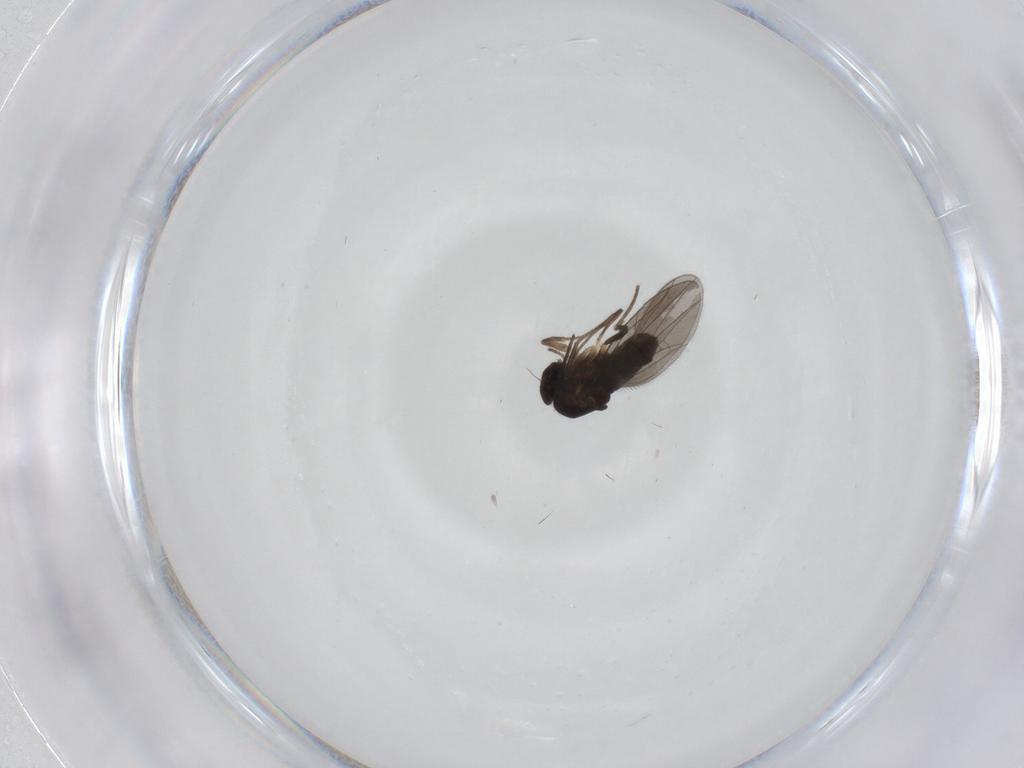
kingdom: Animalia
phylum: Arthropoda
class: Insecta
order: Diptera
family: Dolichopodidae
